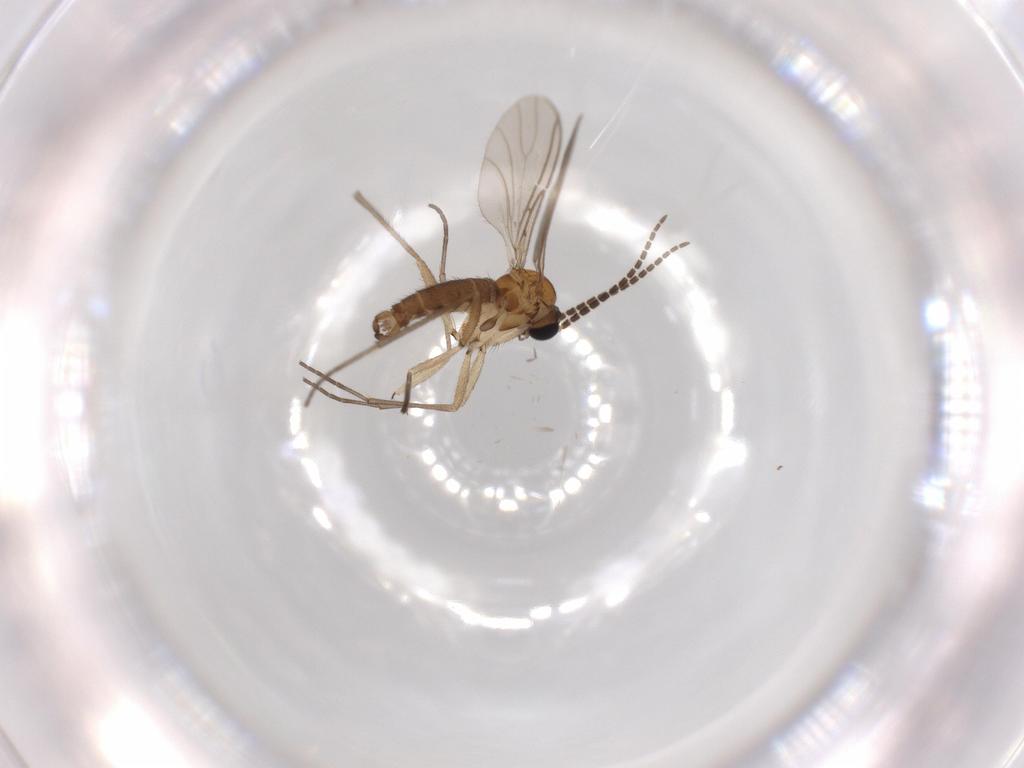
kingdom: Animalia
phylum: Arthropoda
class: Insecta
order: Diptera
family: Sciaridae
